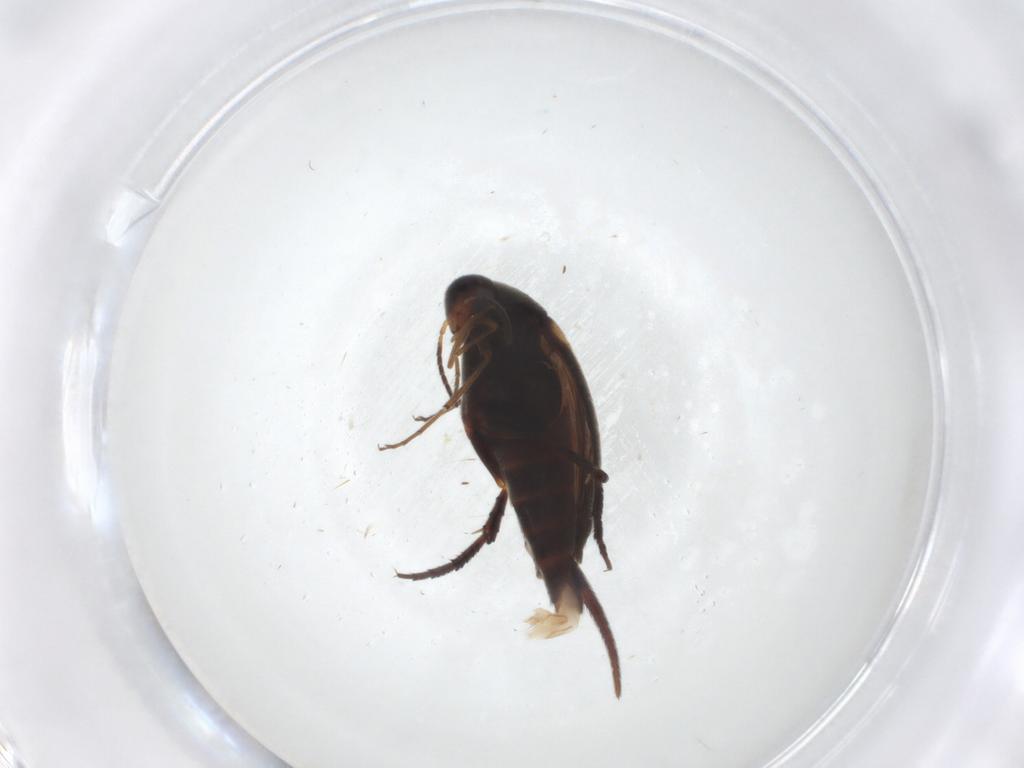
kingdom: Animalia
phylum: Arthropoda
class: Insecta
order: Coleoptera
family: Mordellidae
